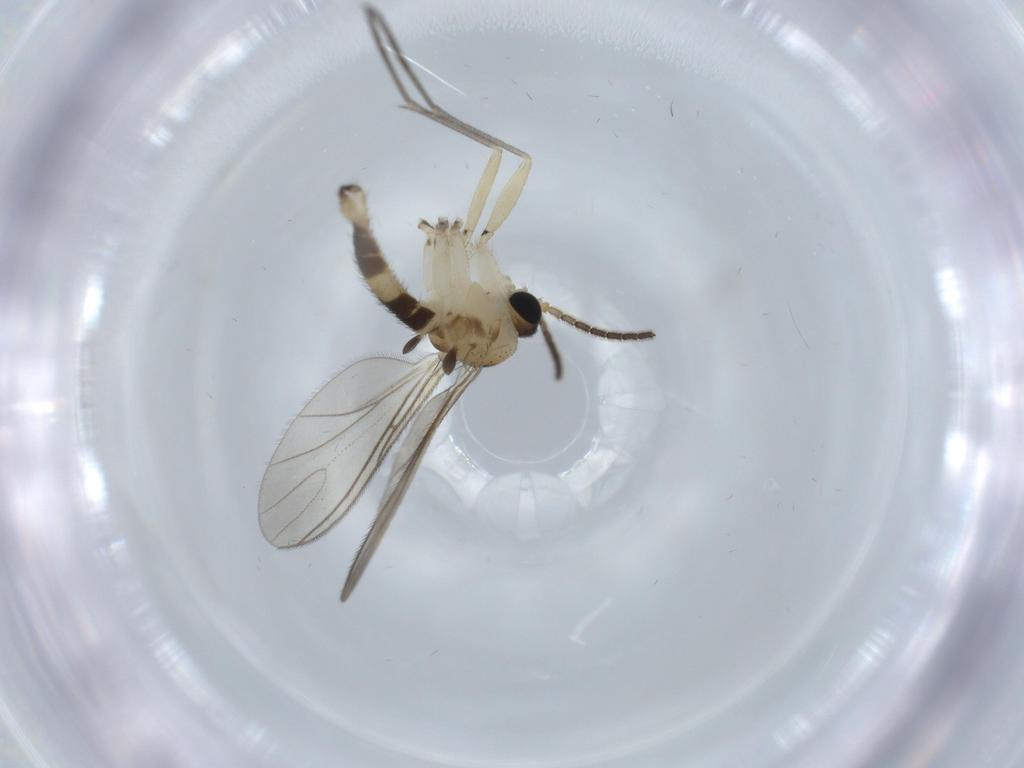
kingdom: Animalia
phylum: Arthropoda
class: Insecta
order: Diptera
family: Sciaridae
